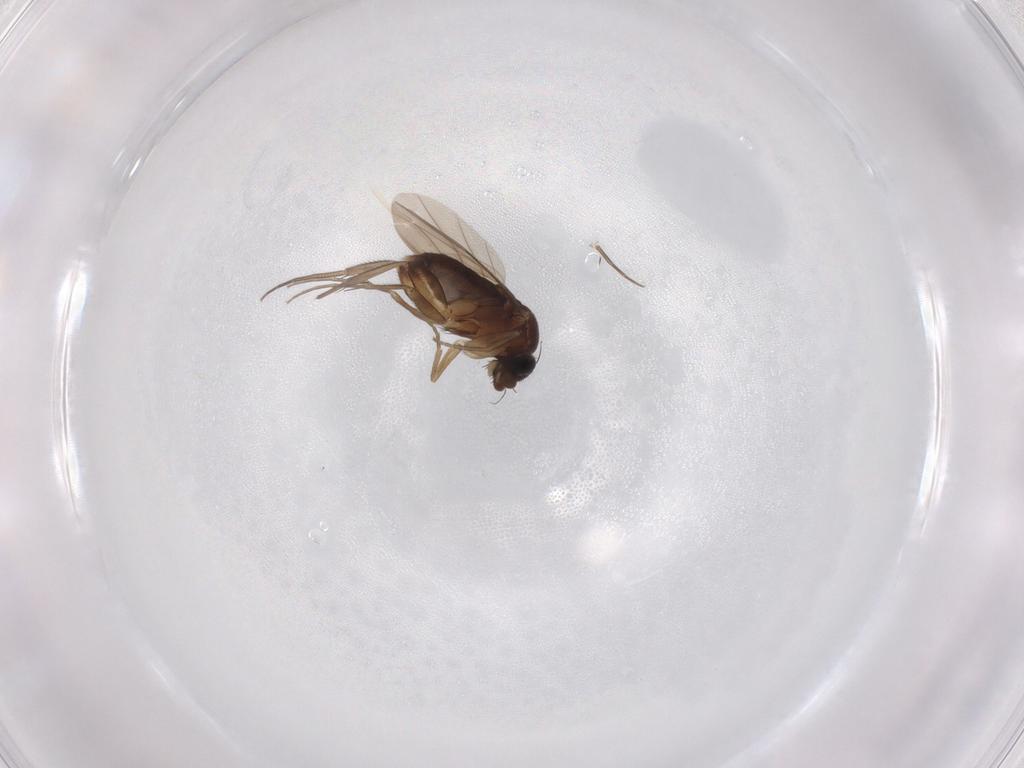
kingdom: Animalia
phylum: Arthropoda
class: Insecta
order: Diptera
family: Phoridae
